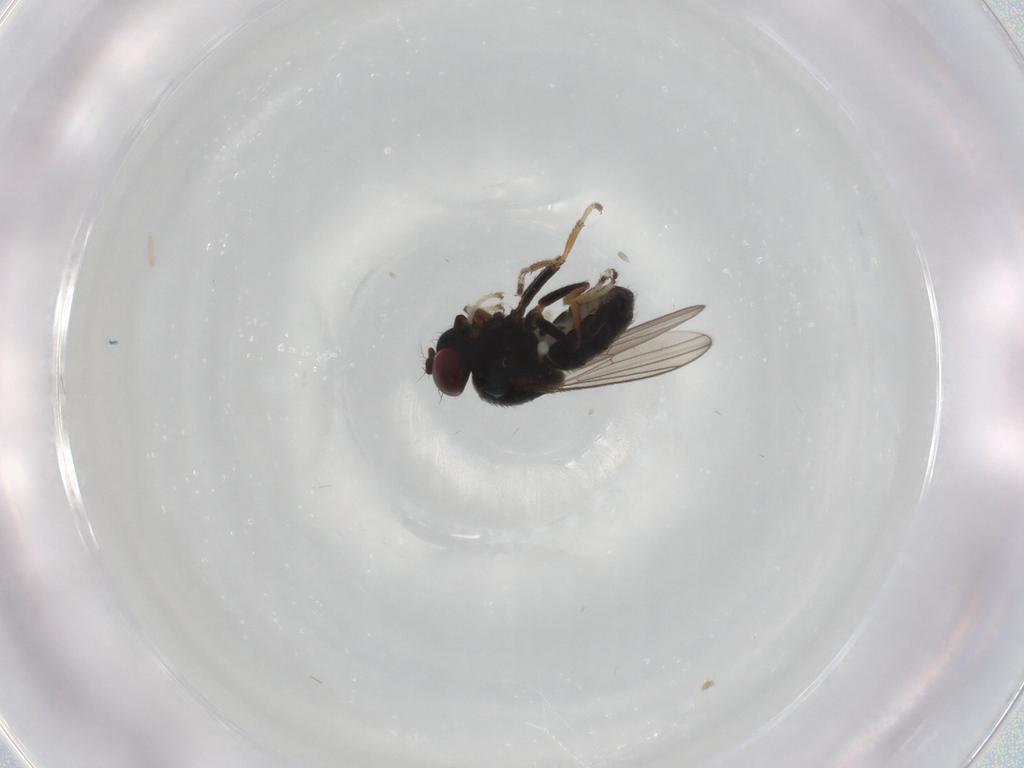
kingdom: Animalia
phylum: Arthropoda
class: Insecta
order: Diptera
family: Ephydridae
